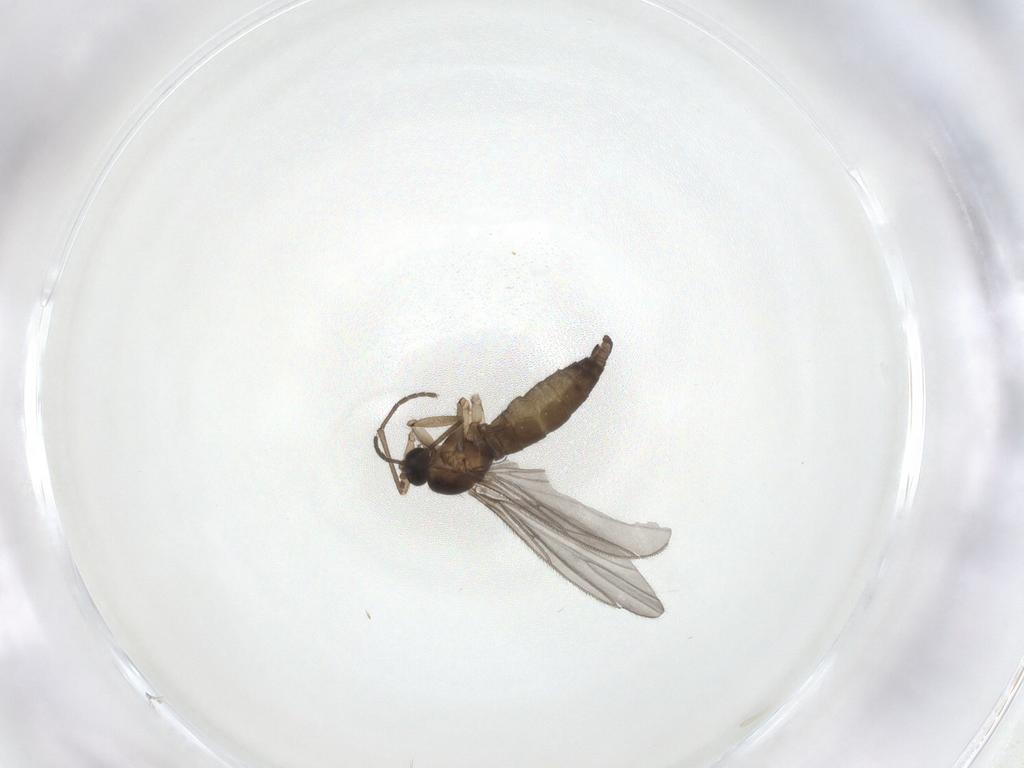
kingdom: Animalia
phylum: Arthropoda
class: Insecta
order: Diptera
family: Sciaridae
